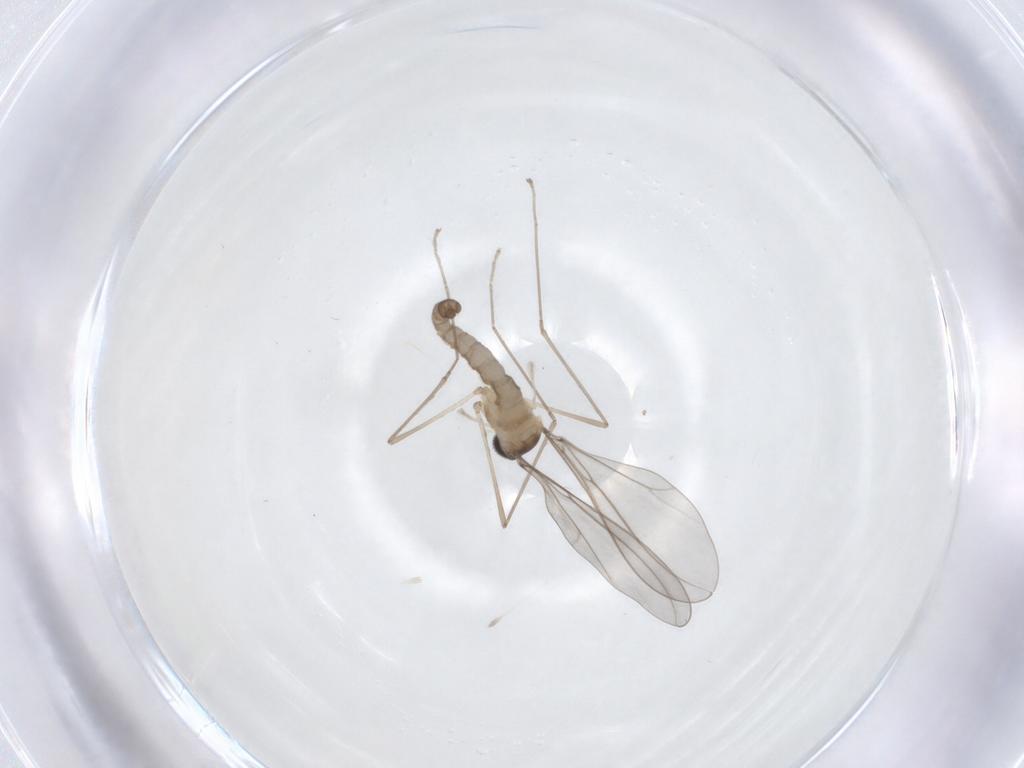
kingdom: Animalia
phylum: Arthropoda
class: Insecta
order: Diptera
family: Cecidomyiidae
